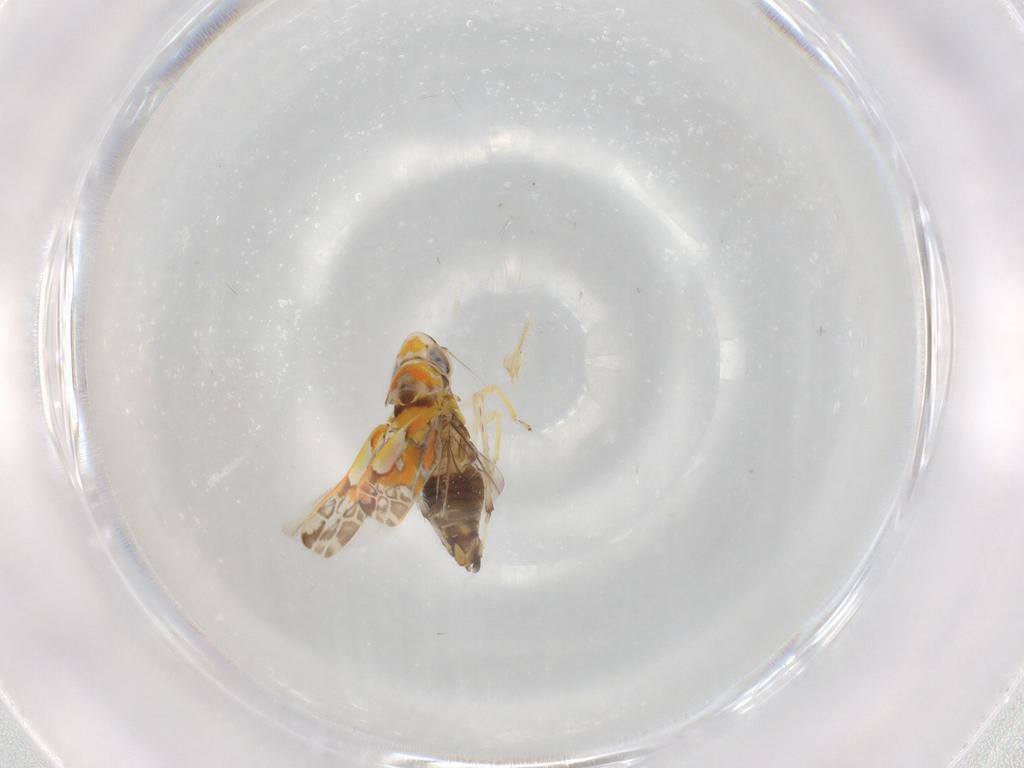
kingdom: Animalia
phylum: Arthropoda
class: Insecta
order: Hemiptera
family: Cicadellidae
